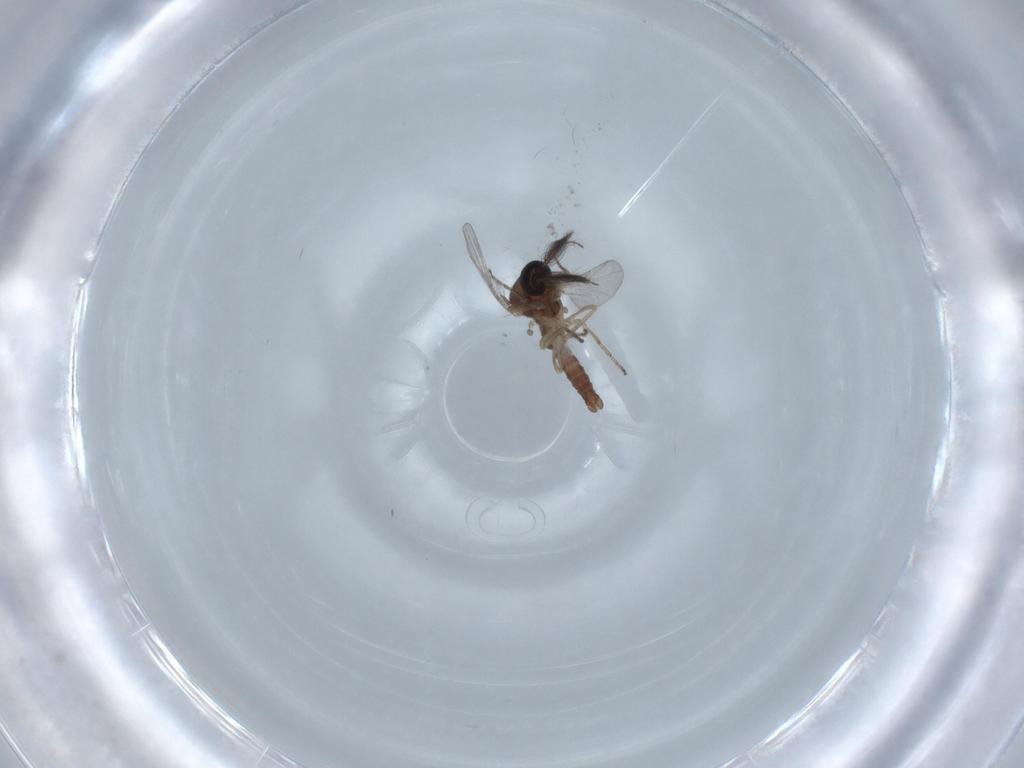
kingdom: Animalia
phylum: Arthropoda
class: Insecta
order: Diptera
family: Ceratopogonidae
